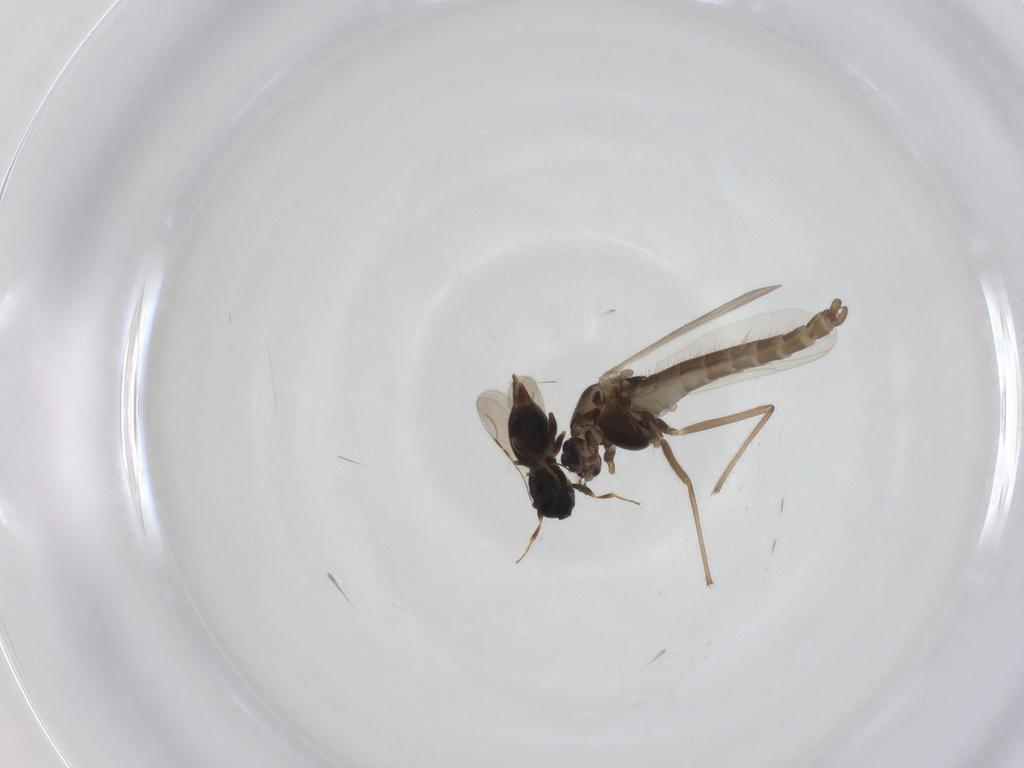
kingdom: Animalia
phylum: Arthropoda
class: Insecta
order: Diptera
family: Chironomidae
